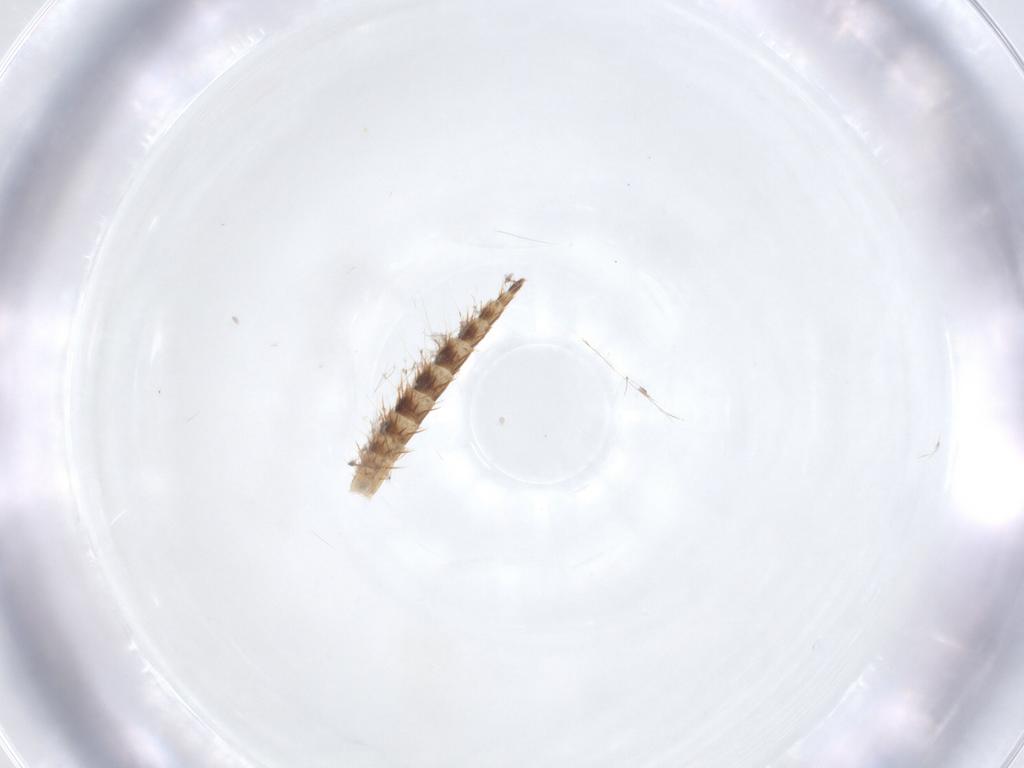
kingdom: Animalia
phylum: Arthropoda
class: Insecta
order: Blattodea
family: Ectobiidae
